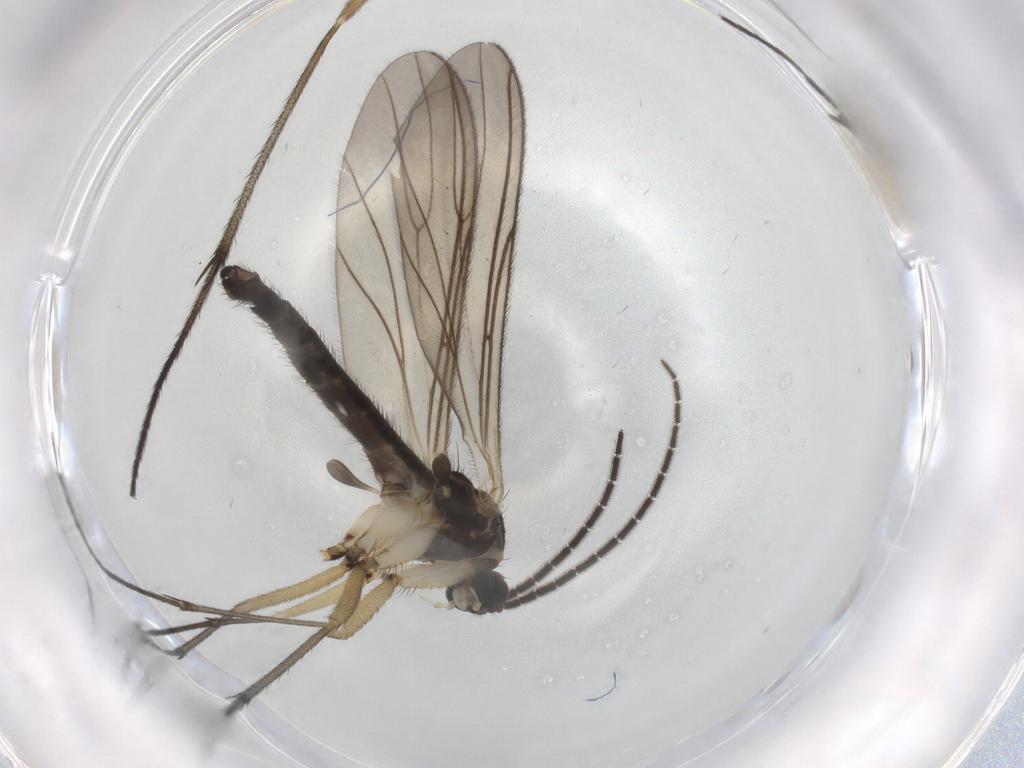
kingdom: Animalia
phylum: Arthropoda
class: Insecta
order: Diptera
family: Sciaridae
